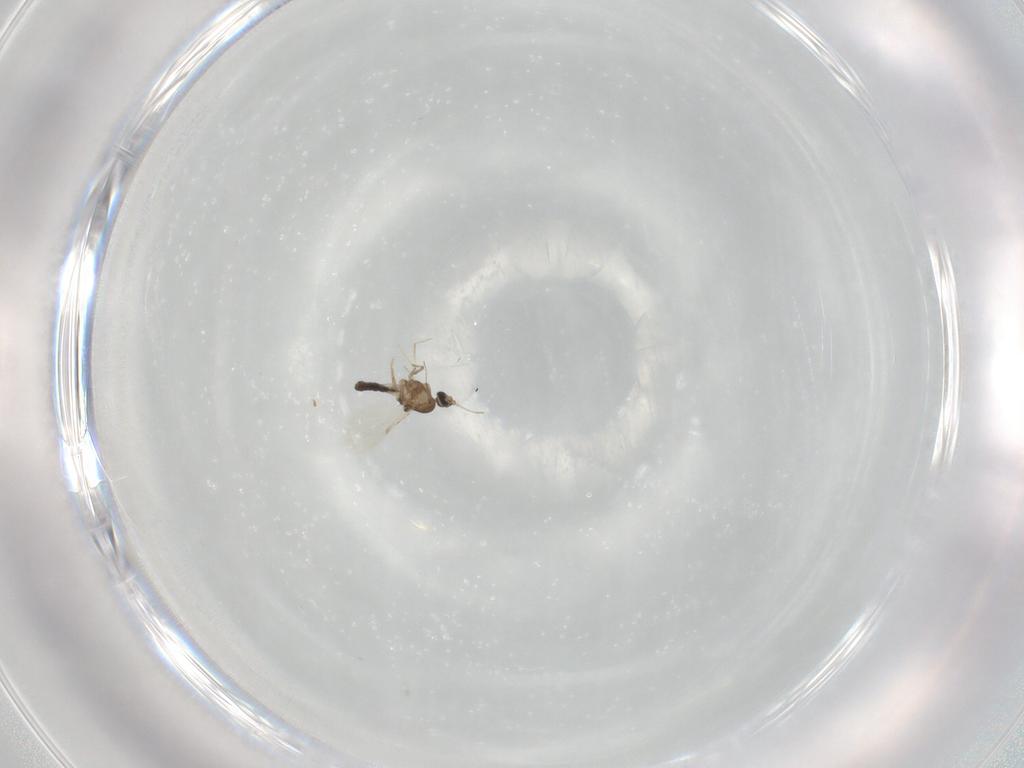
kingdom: Animalia
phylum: Arthropoda
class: Insecta
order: Diptera
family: Ceratopogonidae
